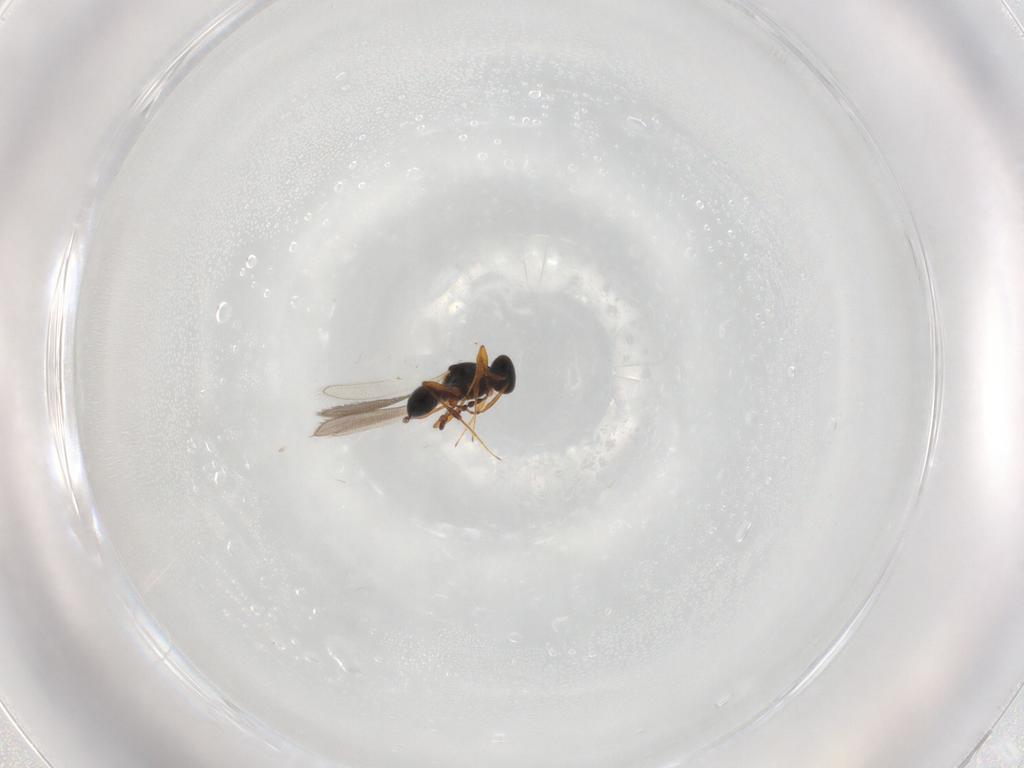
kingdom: Animalia
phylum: Arthropoda
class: Insecta
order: Hymenoptera
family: Platygastridae
